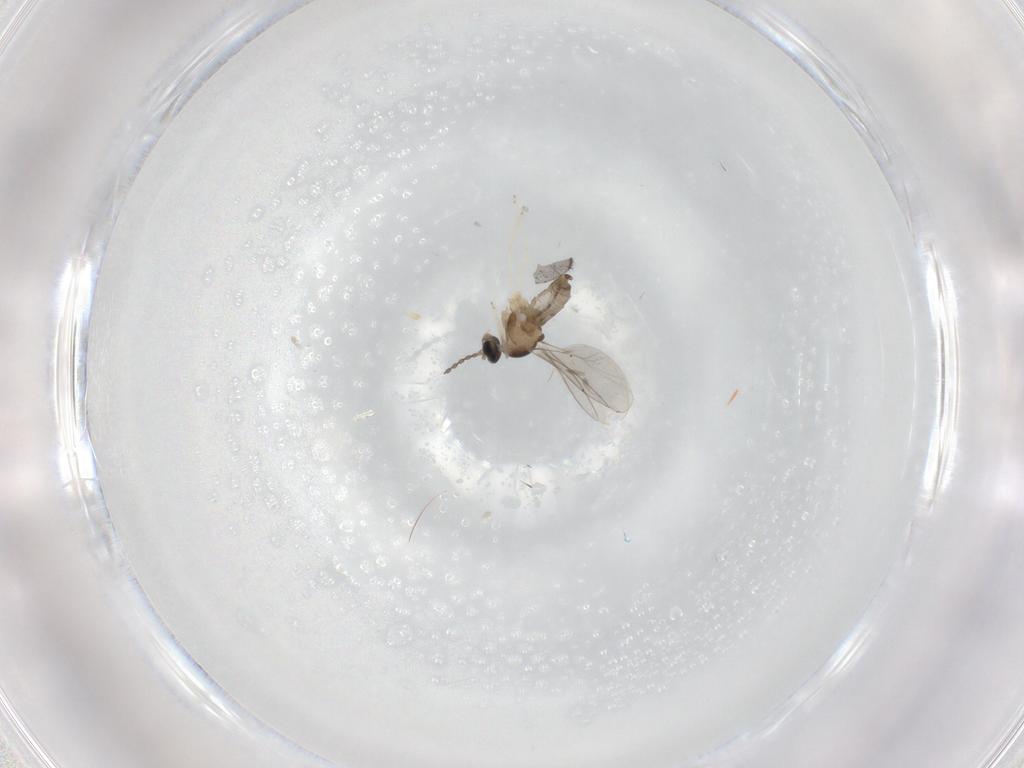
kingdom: Animalia
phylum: Arthropoda
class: Insecta
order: Diptera
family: Cecidomyiidae
